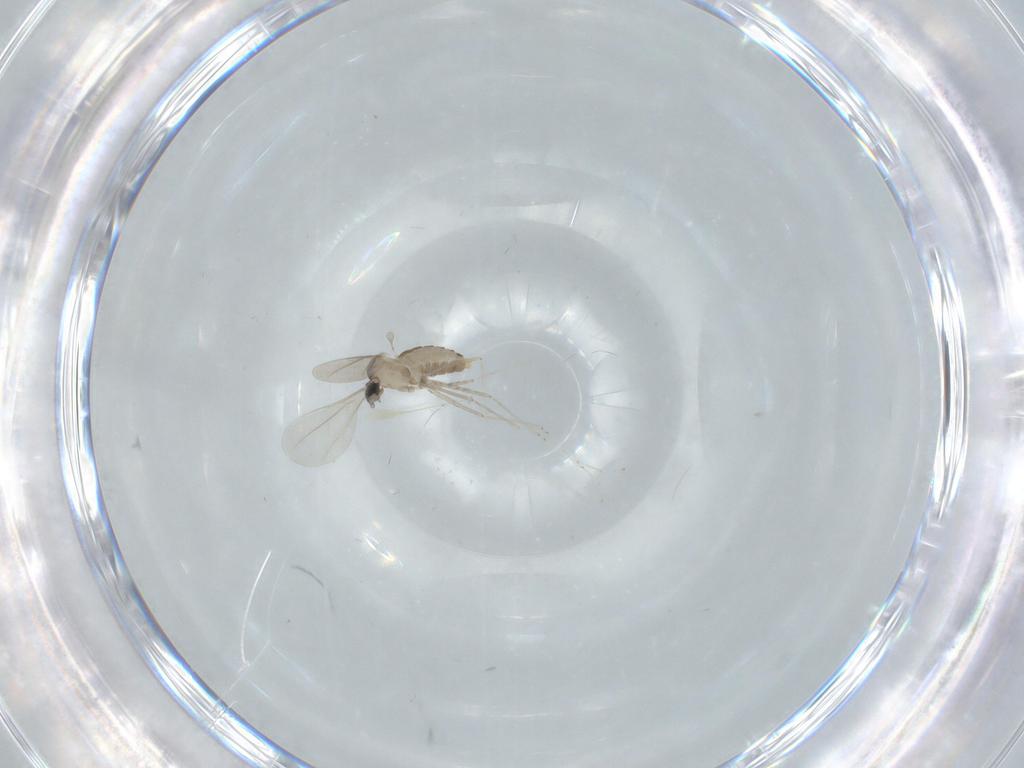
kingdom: Animalia
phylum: Arthropoda
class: Insecta
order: Diptera
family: Cecidomyiidae
